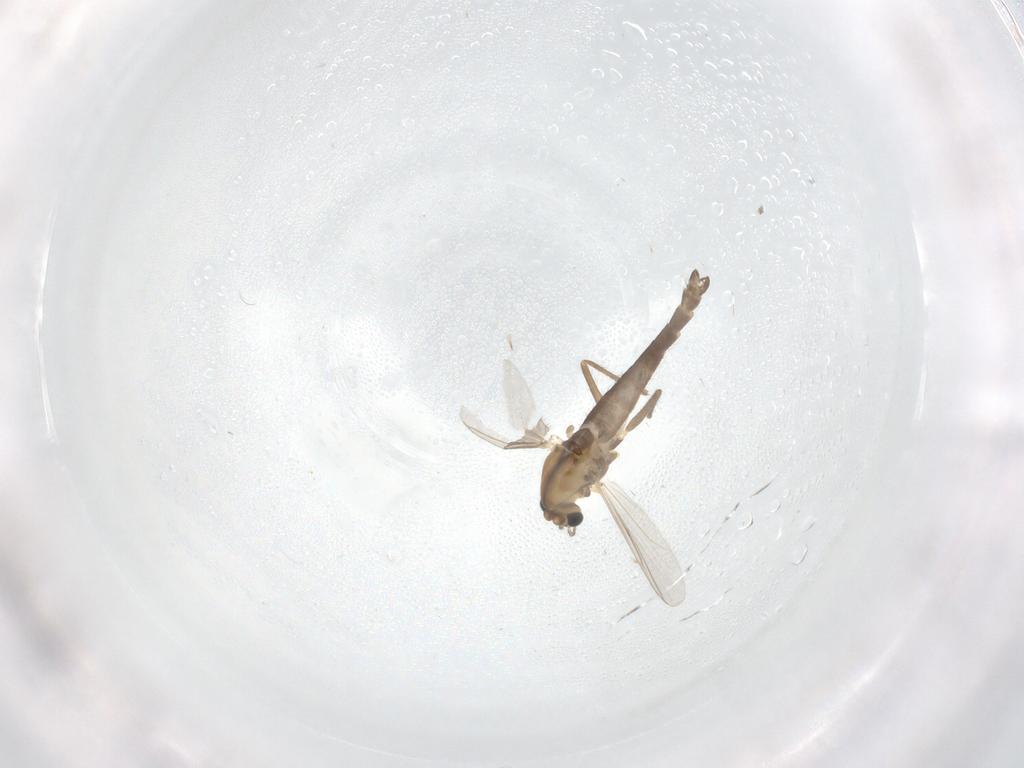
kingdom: Animalia
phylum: Arthropoda
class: Insecta
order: Diptera
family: Chironomidae
